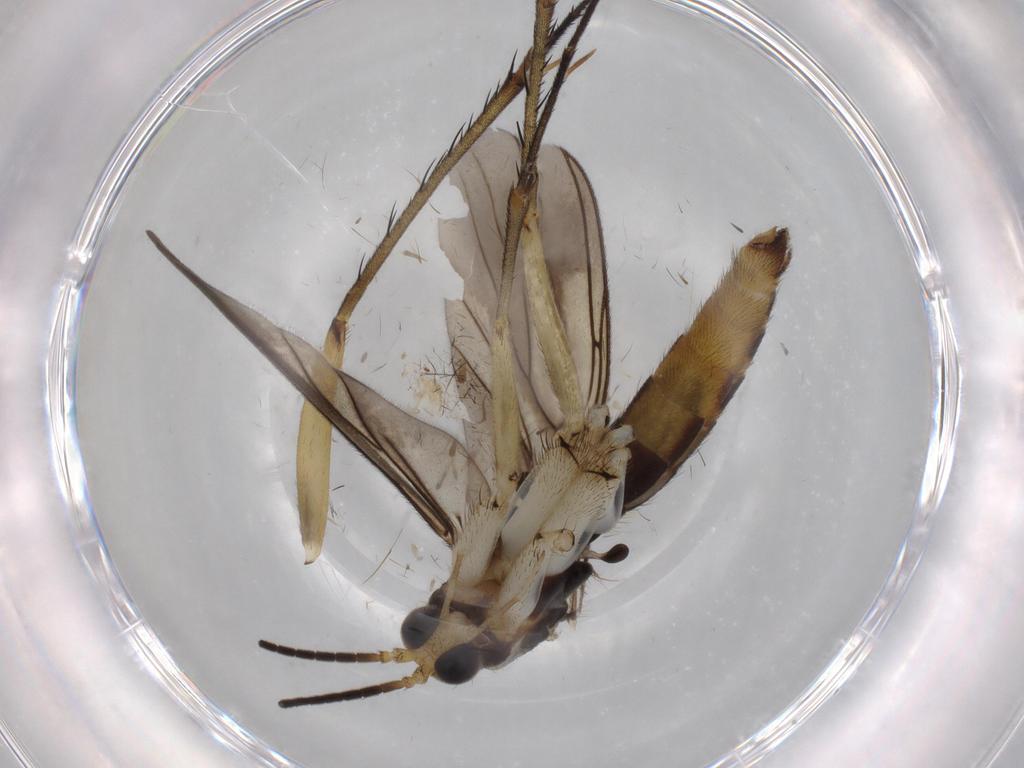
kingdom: Animalia
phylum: Arthropoda
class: Insecta
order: Diptera
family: Sciaridae
